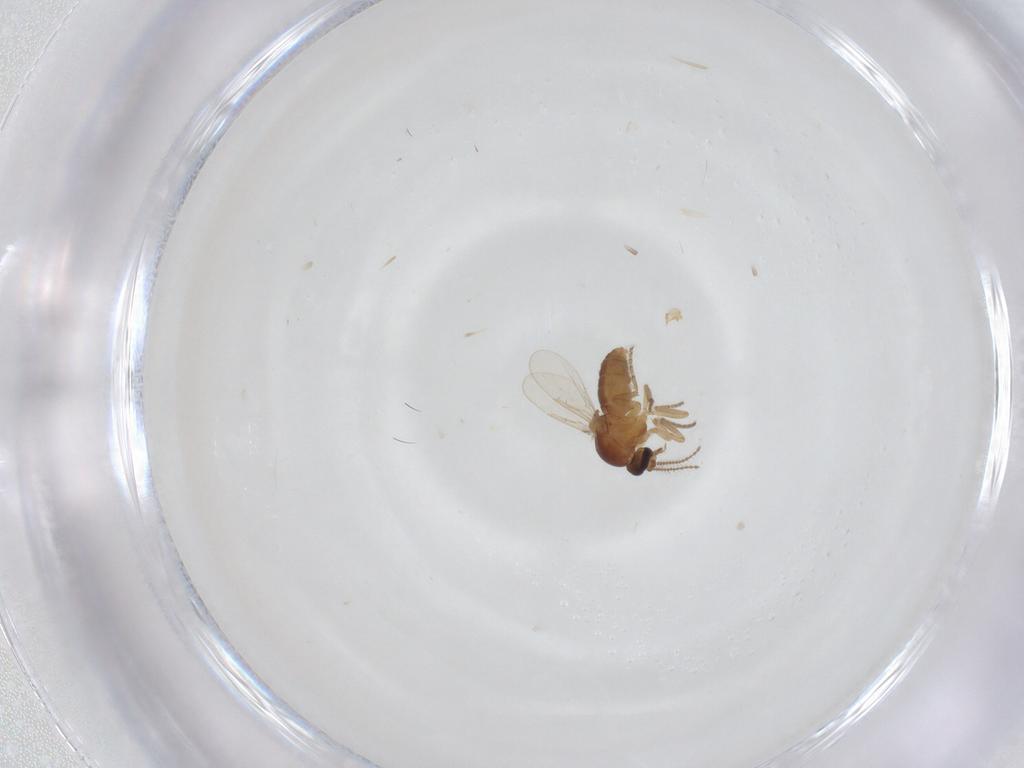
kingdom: Animalia
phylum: Arthropoda
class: Insecta
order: Diptera
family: Ceratopogonidae
